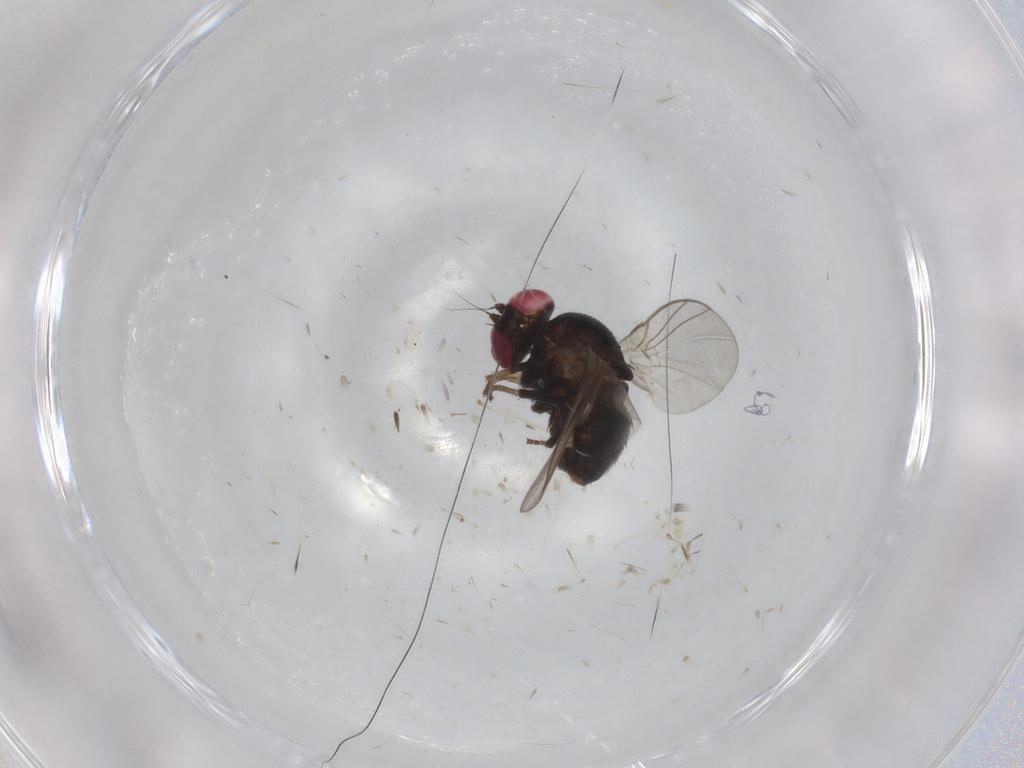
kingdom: Animalia
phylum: Arthropoda
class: Insecta
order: Diptera
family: Agromyzidae
